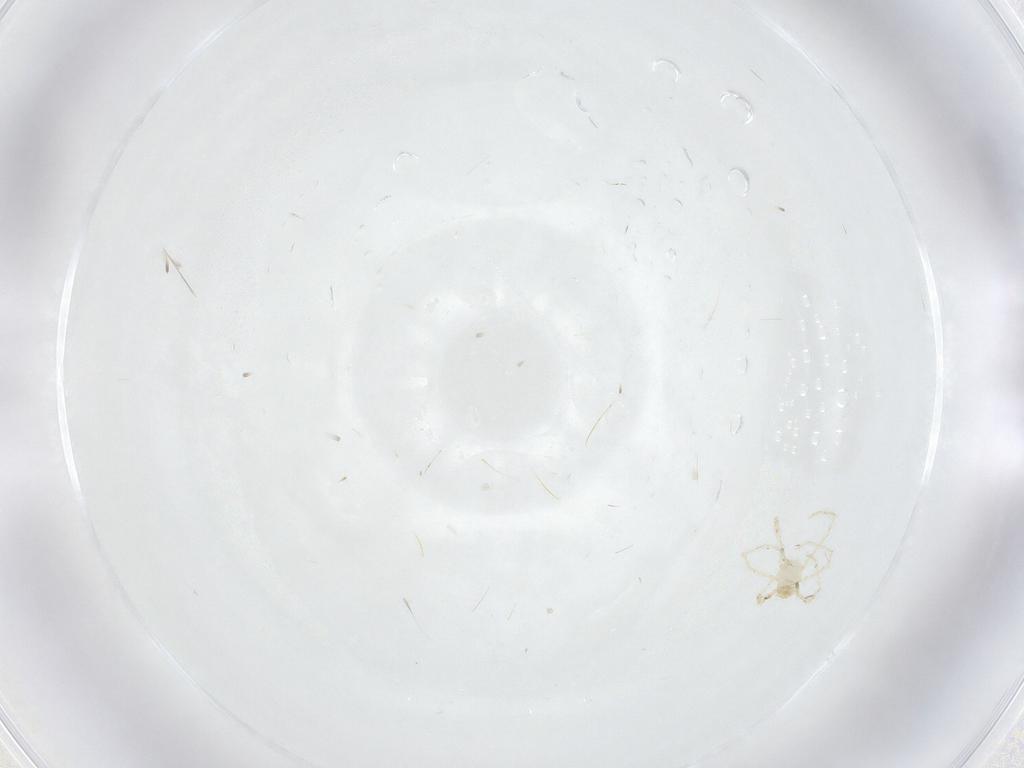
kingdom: Animalia
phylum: Arthropoda
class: Arachnida
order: Trombidiformes
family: Erythraeidae
